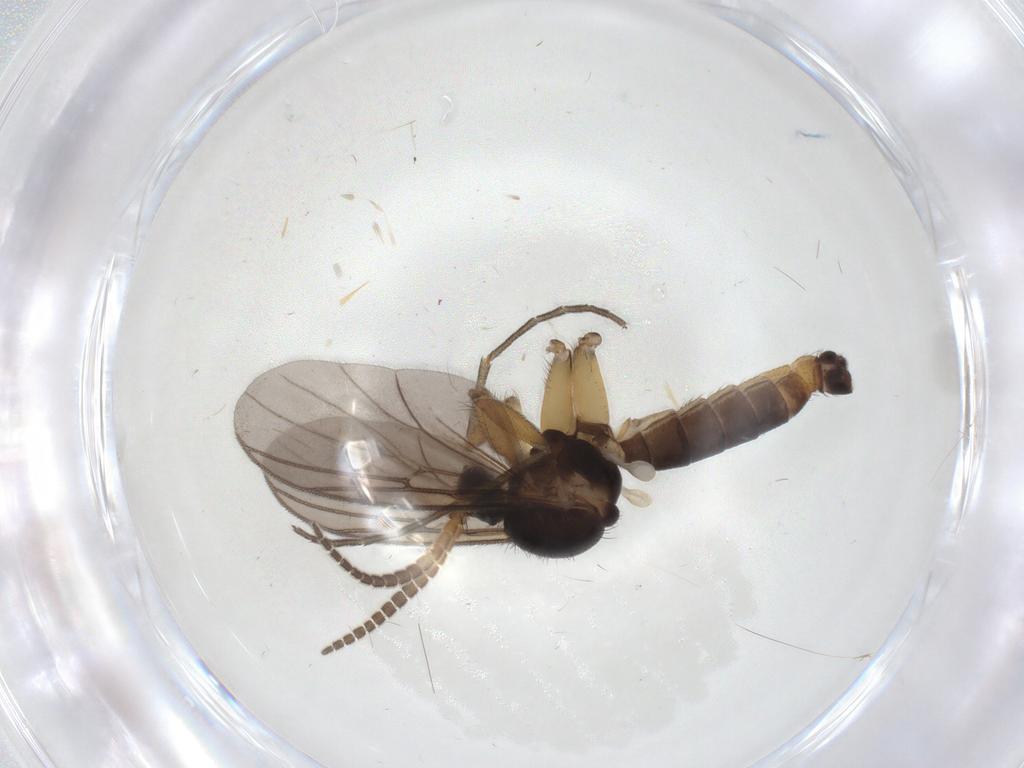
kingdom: Animalia
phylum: Arthropoda
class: Insecta
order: Diptera
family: Mycetophilidae
